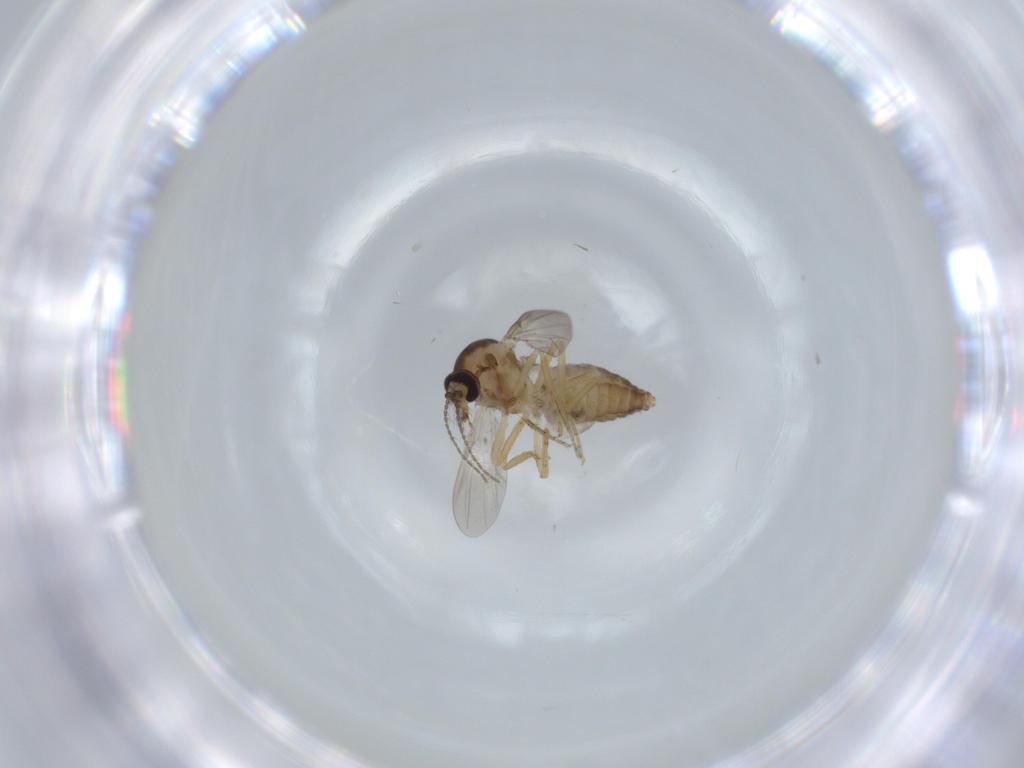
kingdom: Animalia
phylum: Arthropoda
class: Insecta
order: Diptera
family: Ceratopogonidae
